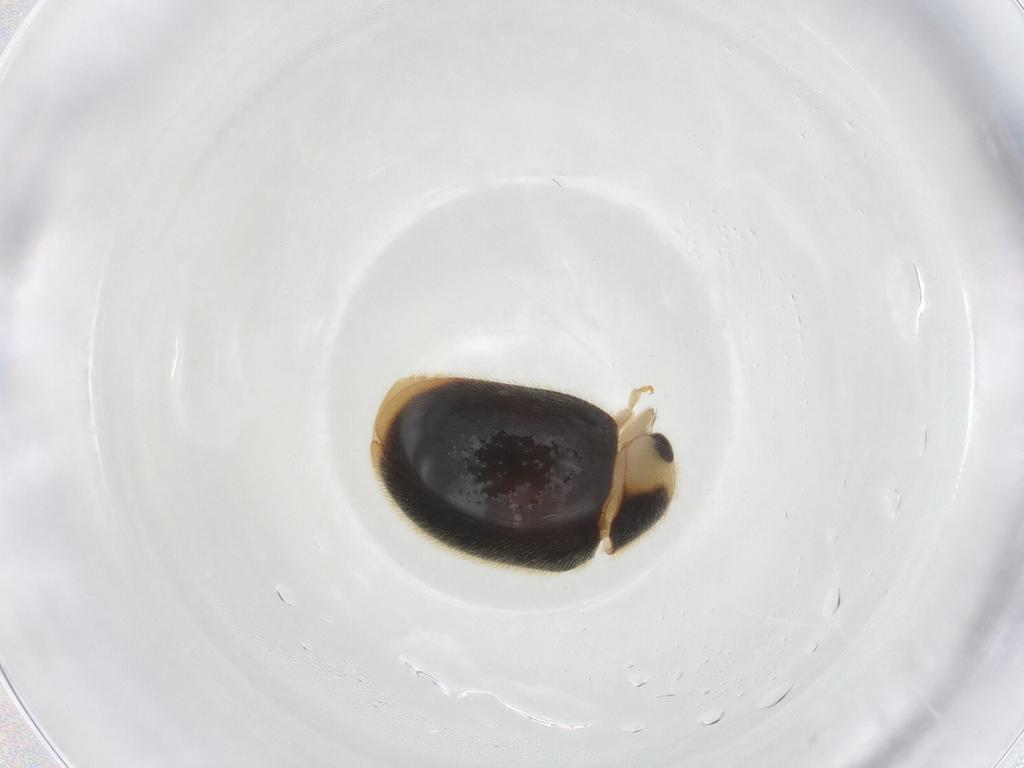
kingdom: Animalia
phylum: Arthropoda
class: Insecta
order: Coleoptera
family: Coccinellidae
